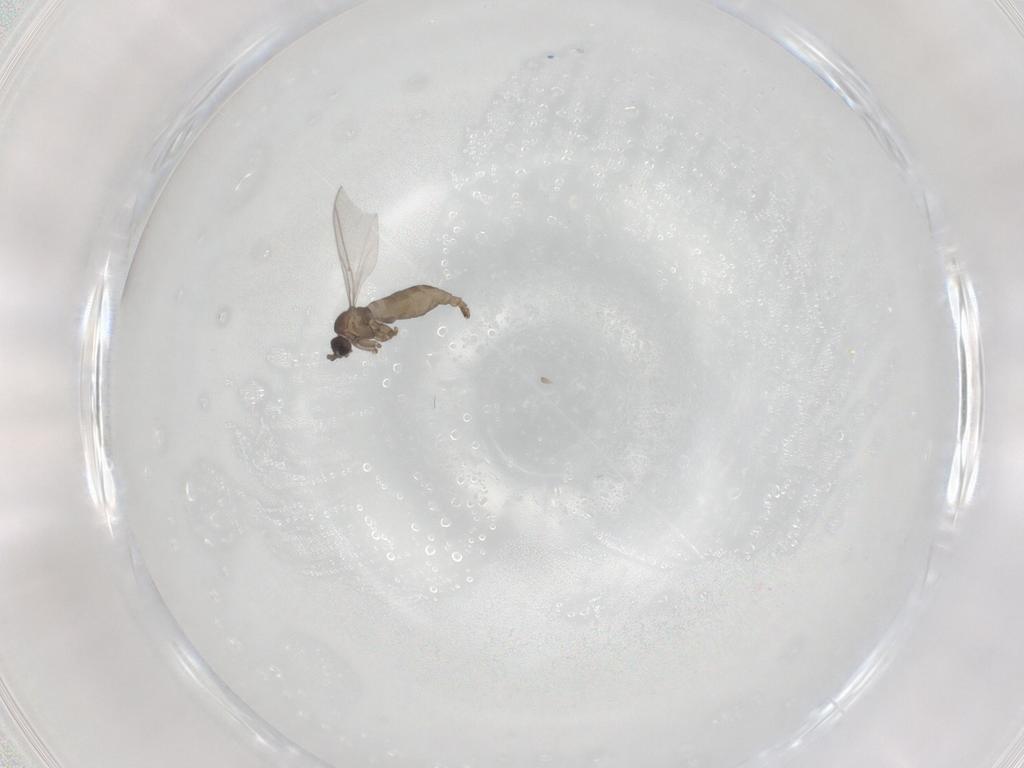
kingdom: Animalia
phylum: Arthropoda
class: Insecta
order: Diptera
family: Sciaridae
